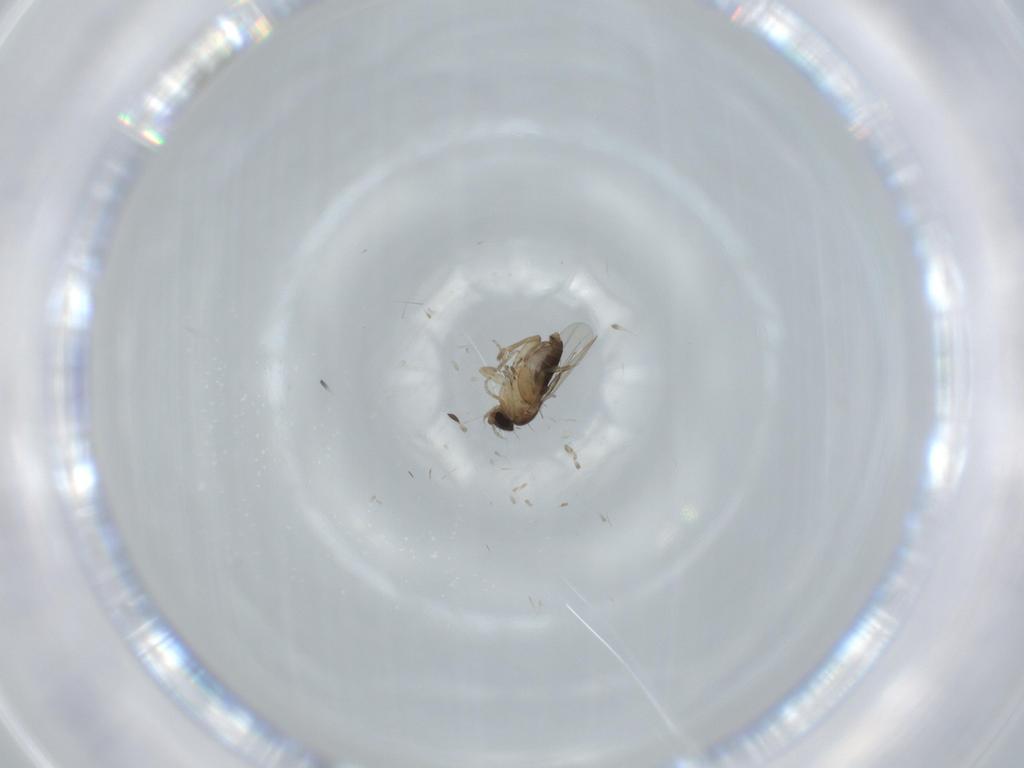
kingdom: Animalia
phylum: Arthropoda
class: Insecta
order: Diptera
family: Phoridae
